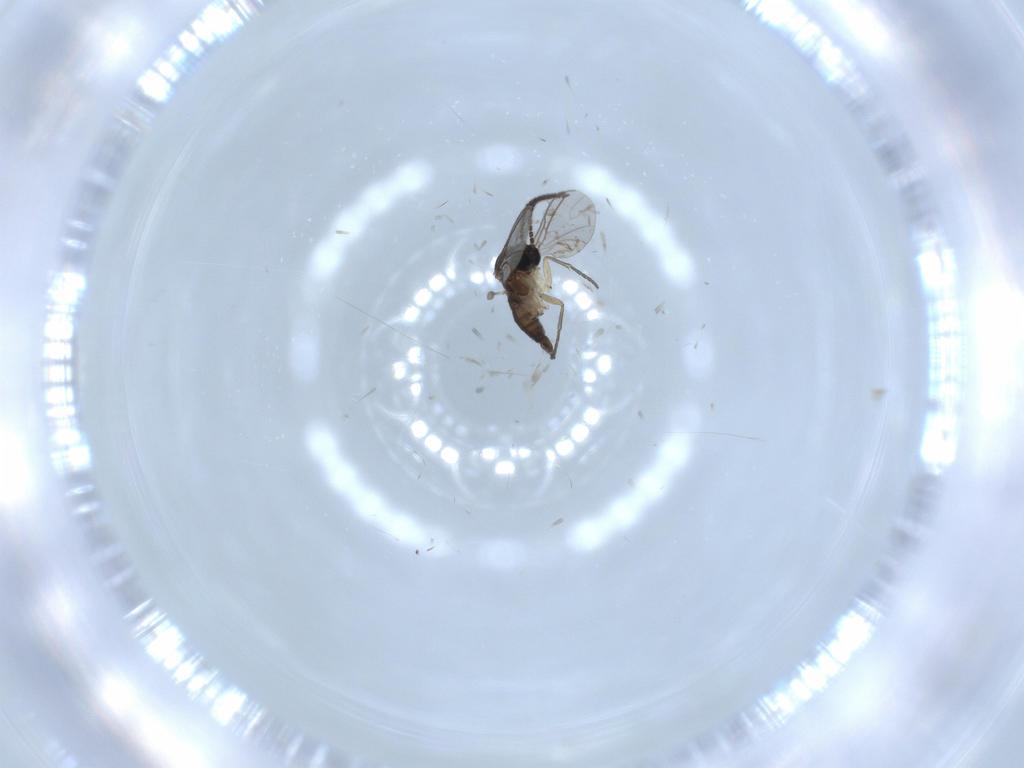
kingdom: Animalia
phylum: Arthropoda
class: Insecta
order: Diptera
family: Sciaridae
